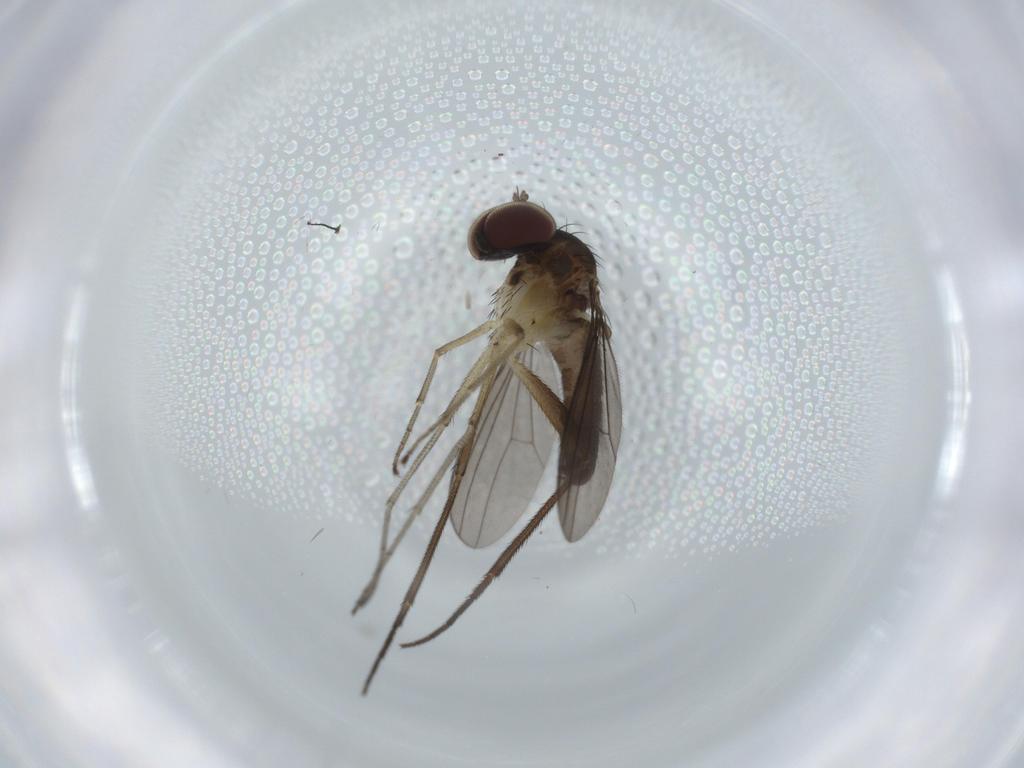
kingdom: Animalia
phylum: Arthropoda
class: Insecta
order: Diptera
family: Dolichopodidae
